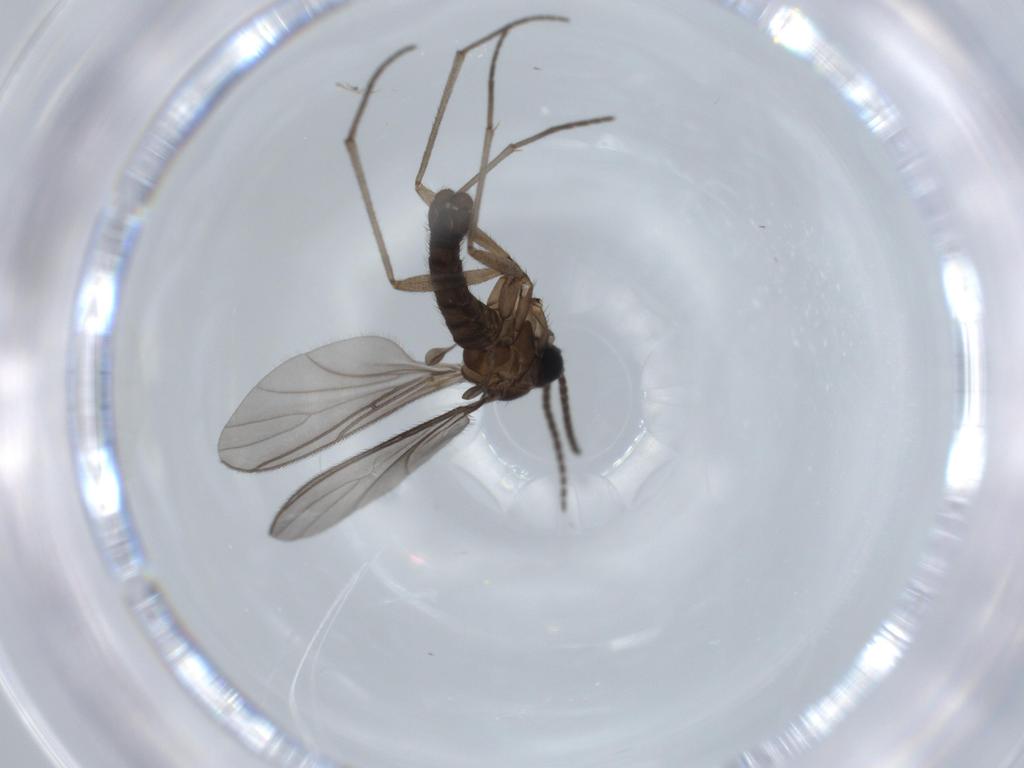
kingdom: Animalia
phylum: Arthropoda
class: Insecta
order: Diptera
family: Sciaridae
